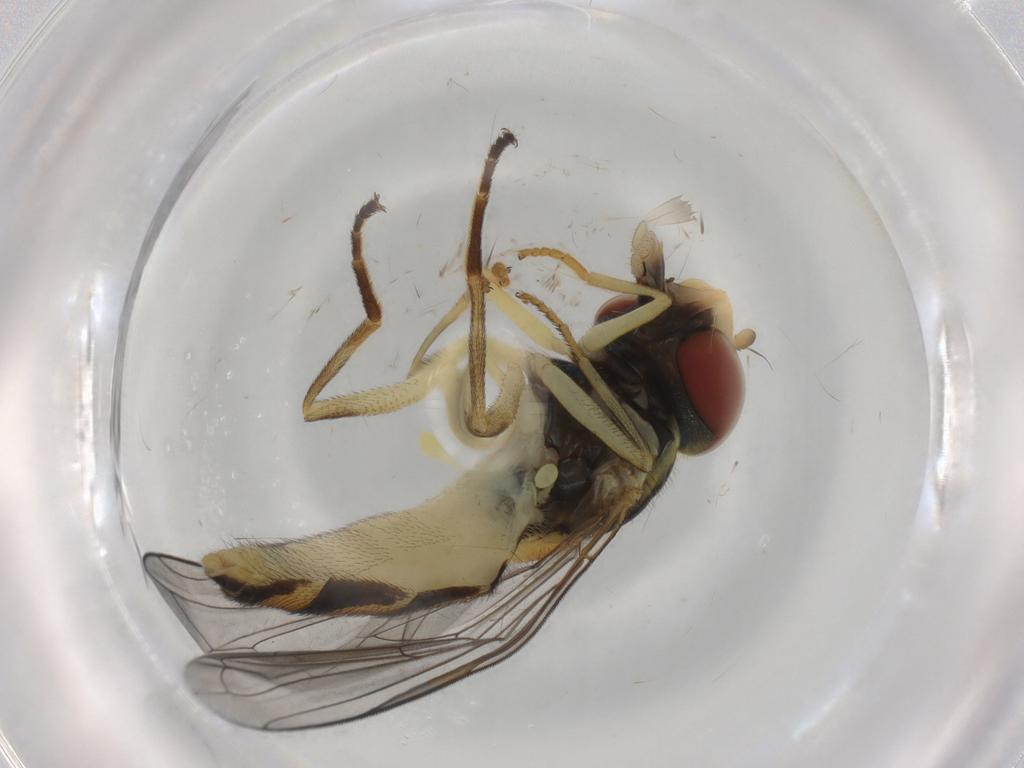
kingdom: Animalia
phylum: Arthropoda
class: Insecta
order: Diptera
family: Syrphidae
